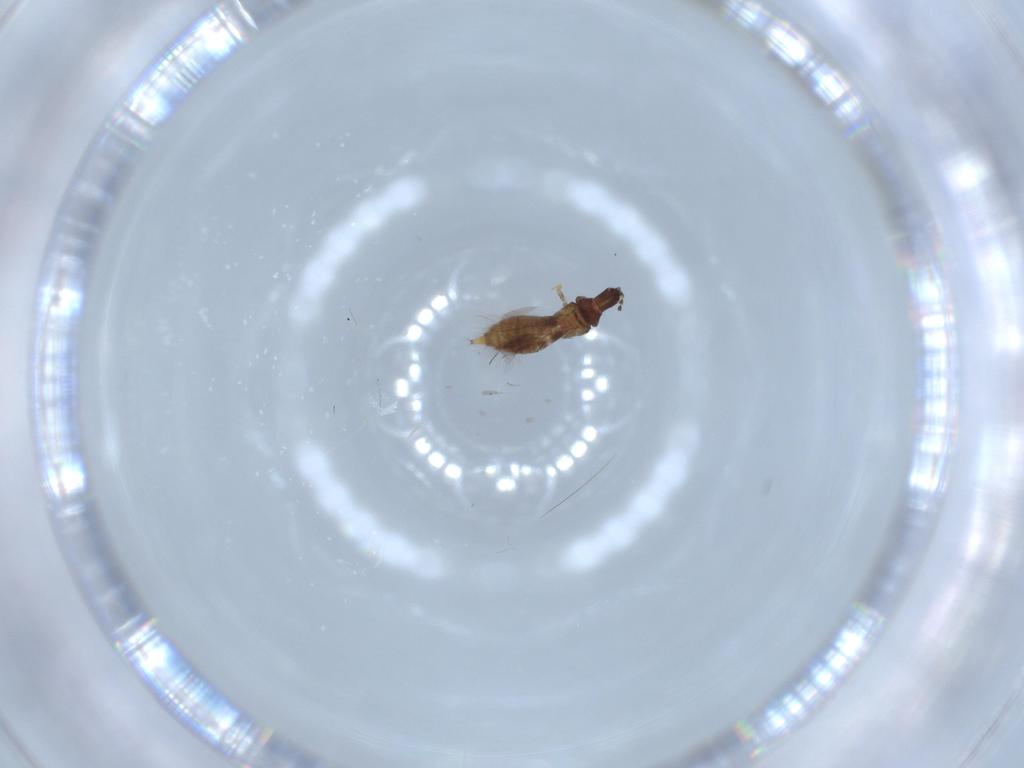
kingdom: Animalia
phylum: Arthropoda
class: Insecta
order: Thysanoptera
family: Phlaeothripidae
